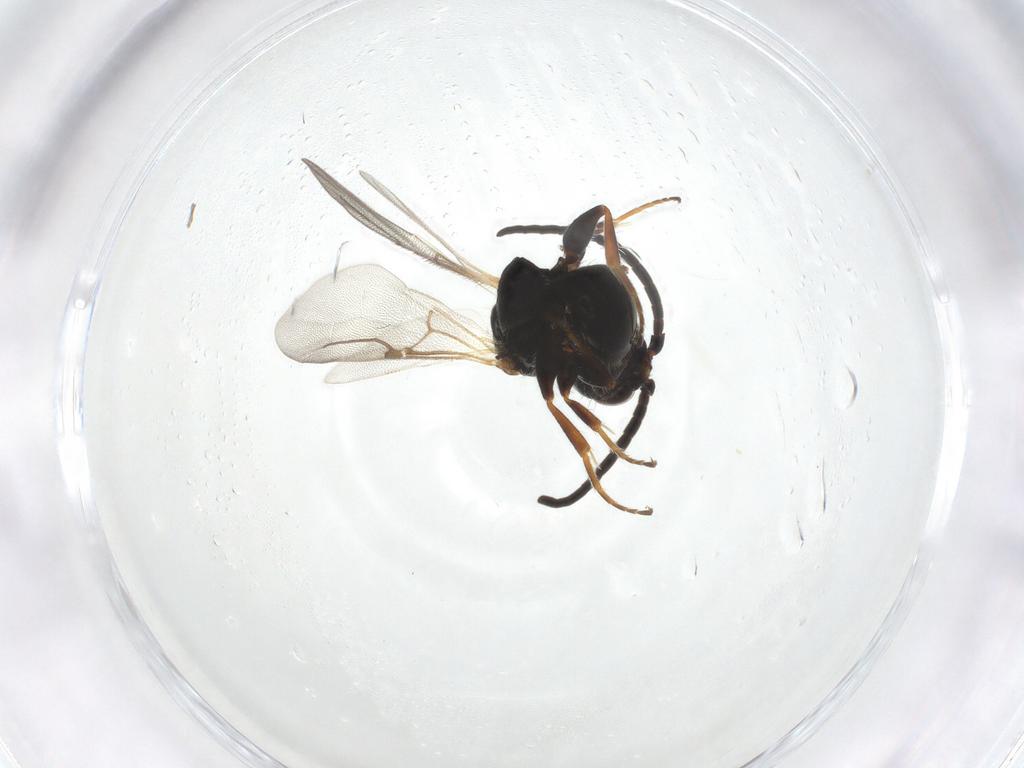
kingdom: Animalia
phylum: Arthropoda
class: Insecta
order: Hymenoptera
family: Bethylidae
